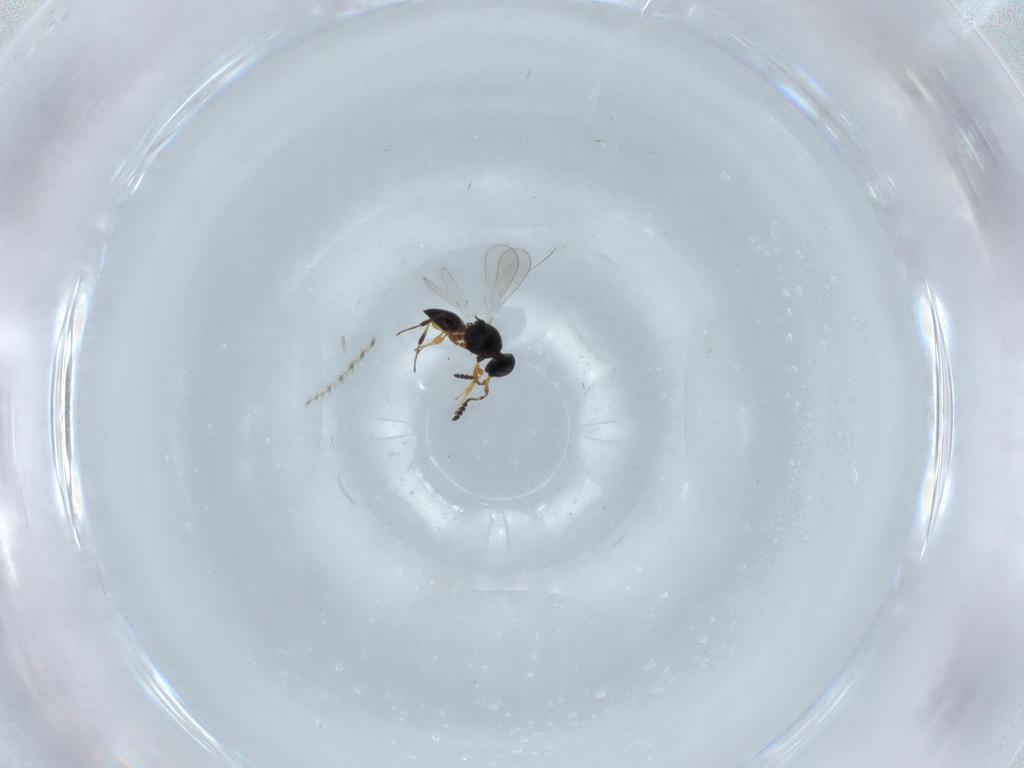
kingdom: Animalia
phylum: Arthropoda
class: Insecta
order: Hymenoptera
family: Platygastridae
